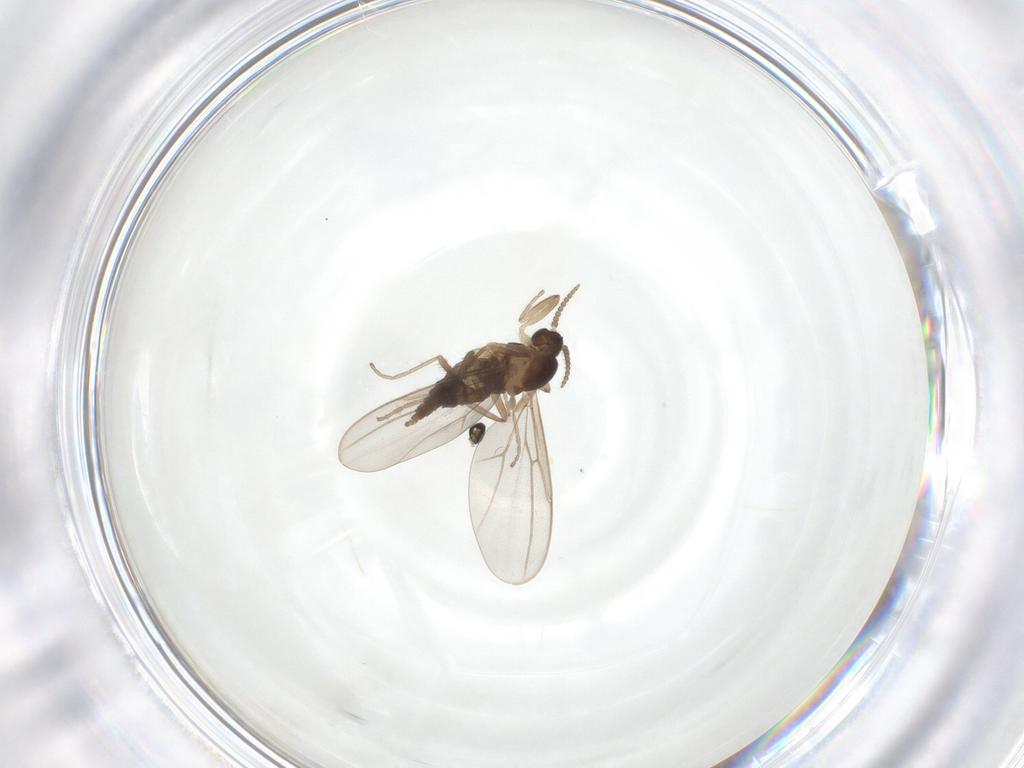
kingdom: Animalia
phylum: Arthropoda
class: Insecta
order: Diptera
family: Cecidomyiidae
